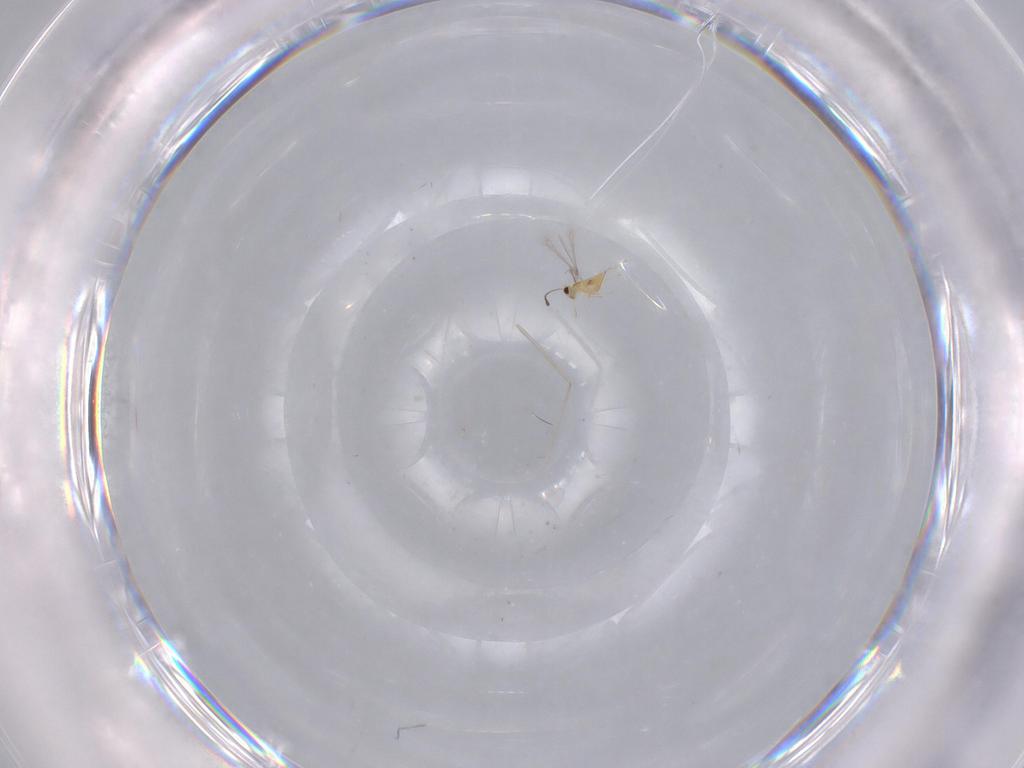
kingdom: Animalia
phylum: Arthropoda
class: Insecta
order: Hymenoptera
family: Mymaridae
